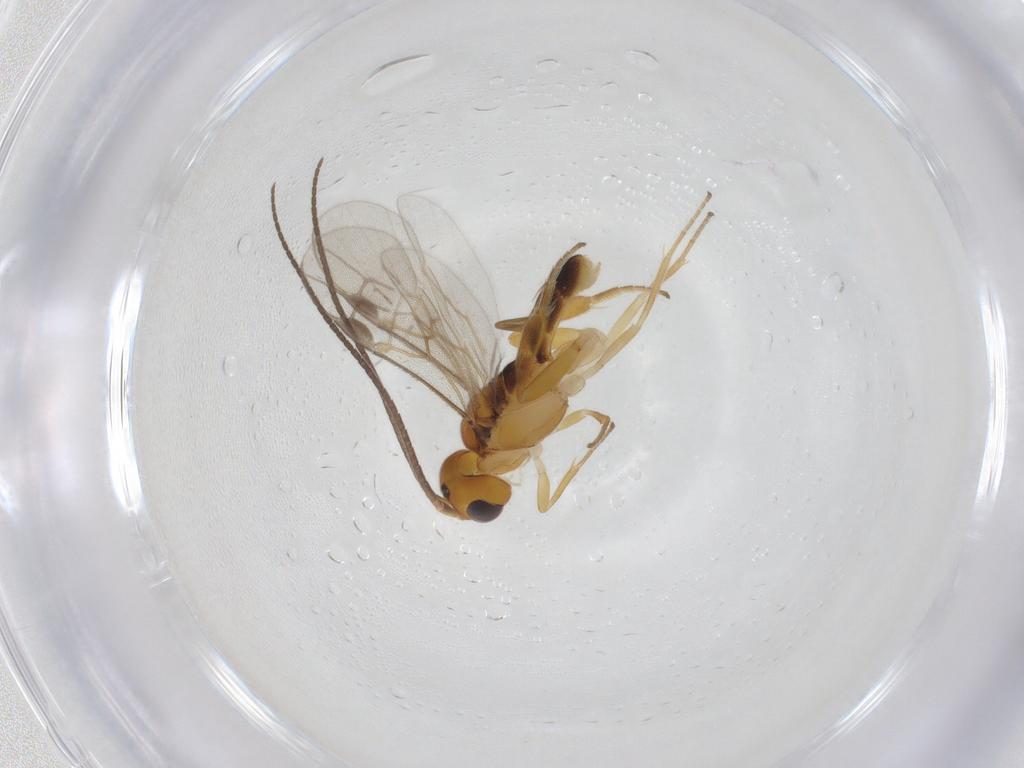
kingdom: Animalia
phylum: Arthropoda
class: Insecta
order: Hymenoptera
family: Braconidae
